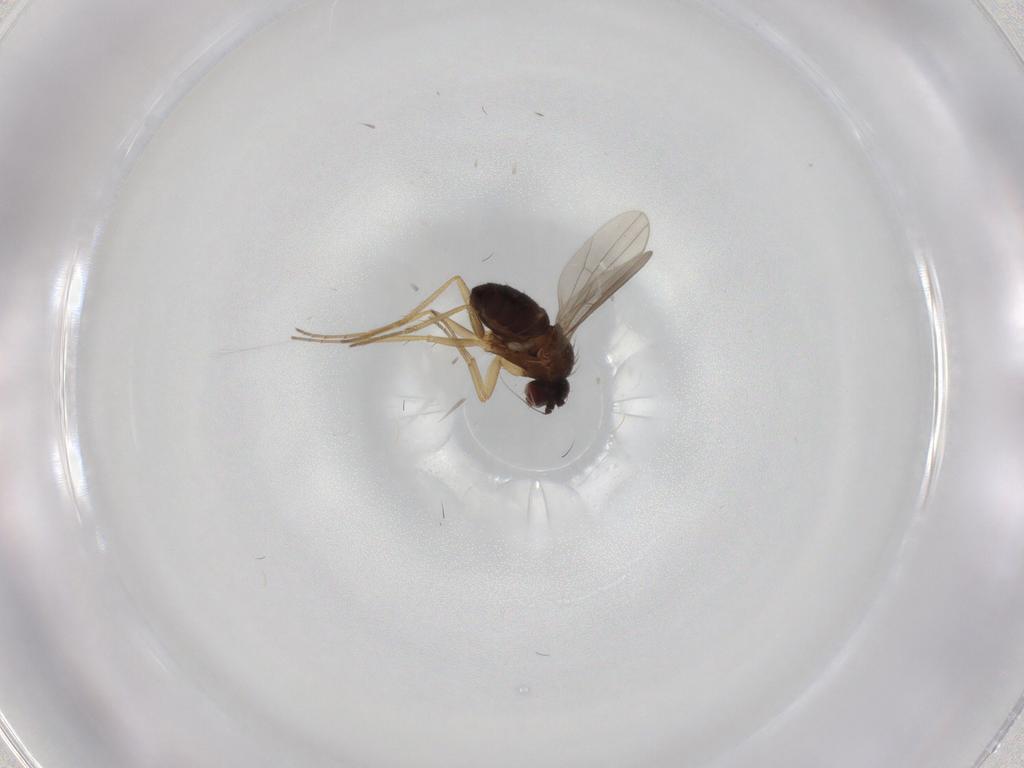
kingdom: Animalia
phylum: Arthropoda
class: Insecta
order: Diptera
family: Dolichopodidae
